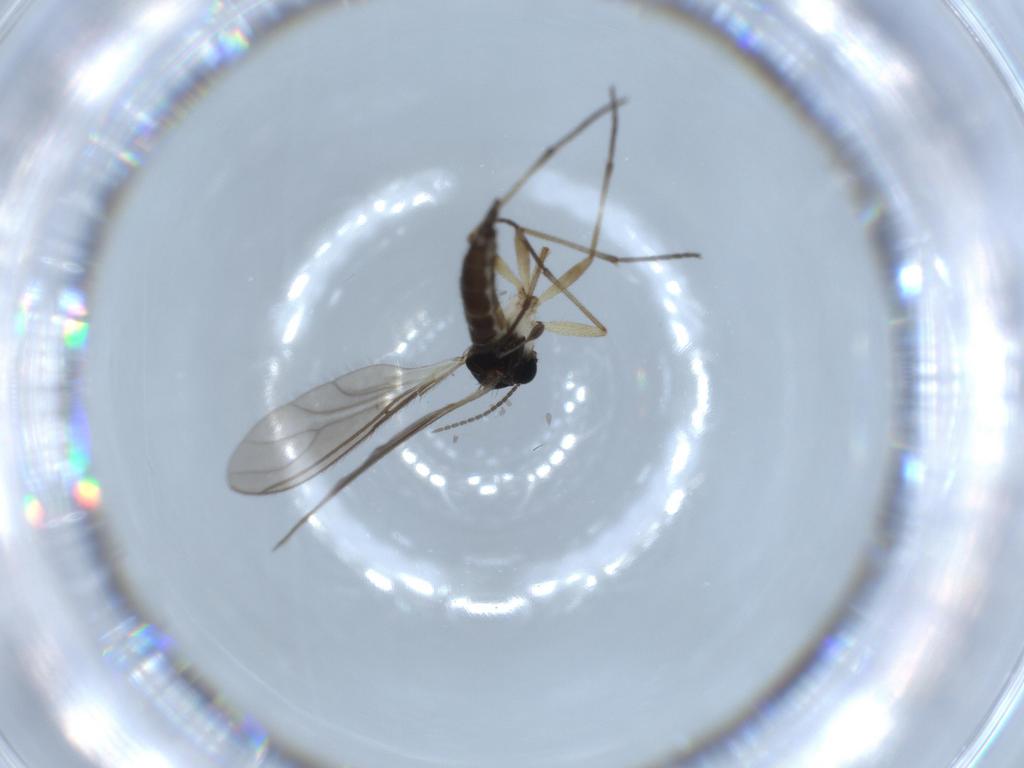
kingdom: Animalia
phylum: Arthropoda
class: Insecta
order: Diptera
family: Sciaridae
